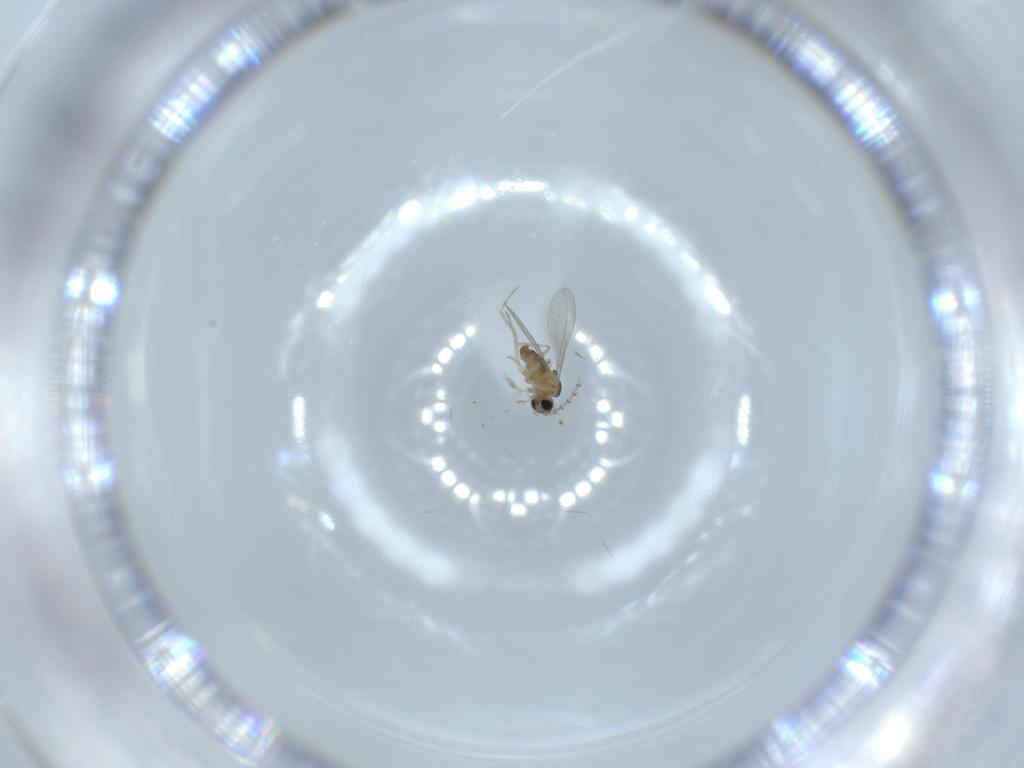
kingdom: Animalia
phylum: Arthropoda
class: Insecta
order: Diptera
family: Cecidomyiidae
